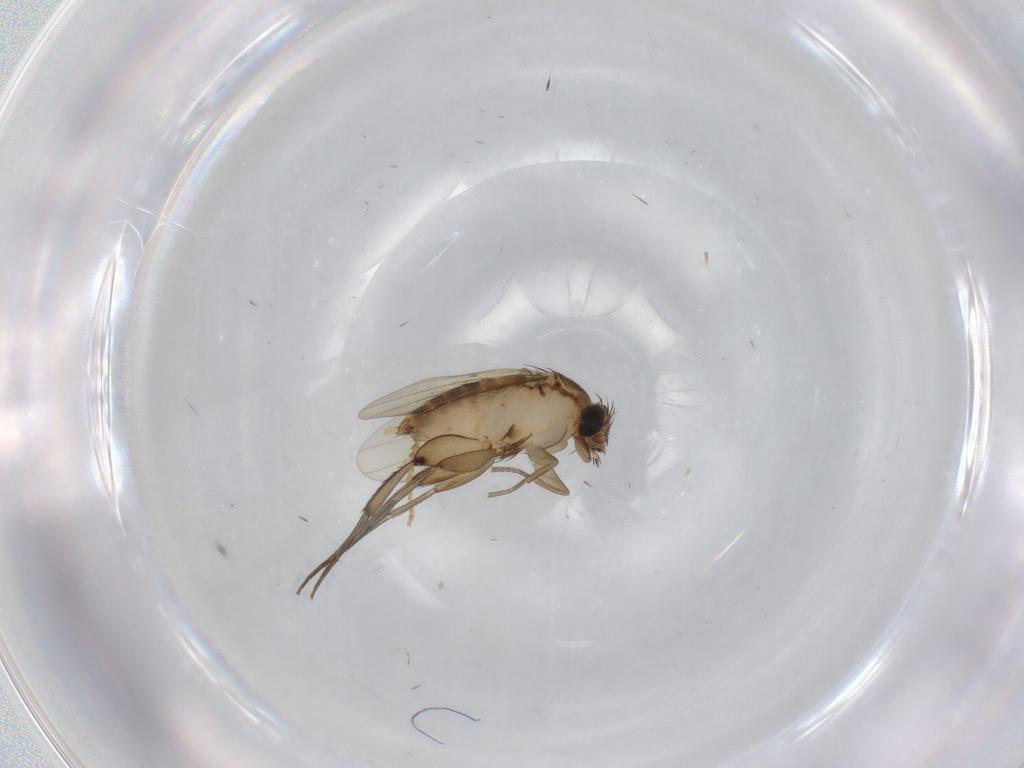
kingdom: Animalia
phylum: Arthropoda
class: Insecta
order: Diptera
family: Phoridae
